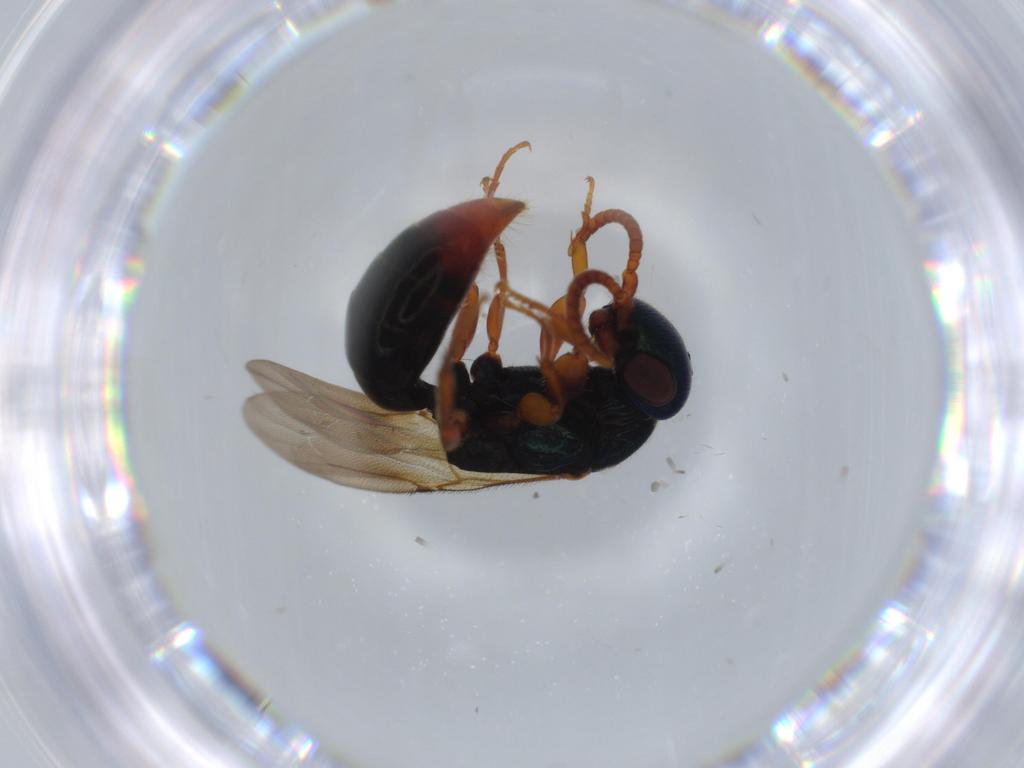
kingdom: Animalia
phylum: Arthropoda
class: Insecta
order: Hymenoptera
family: Bethylidae
